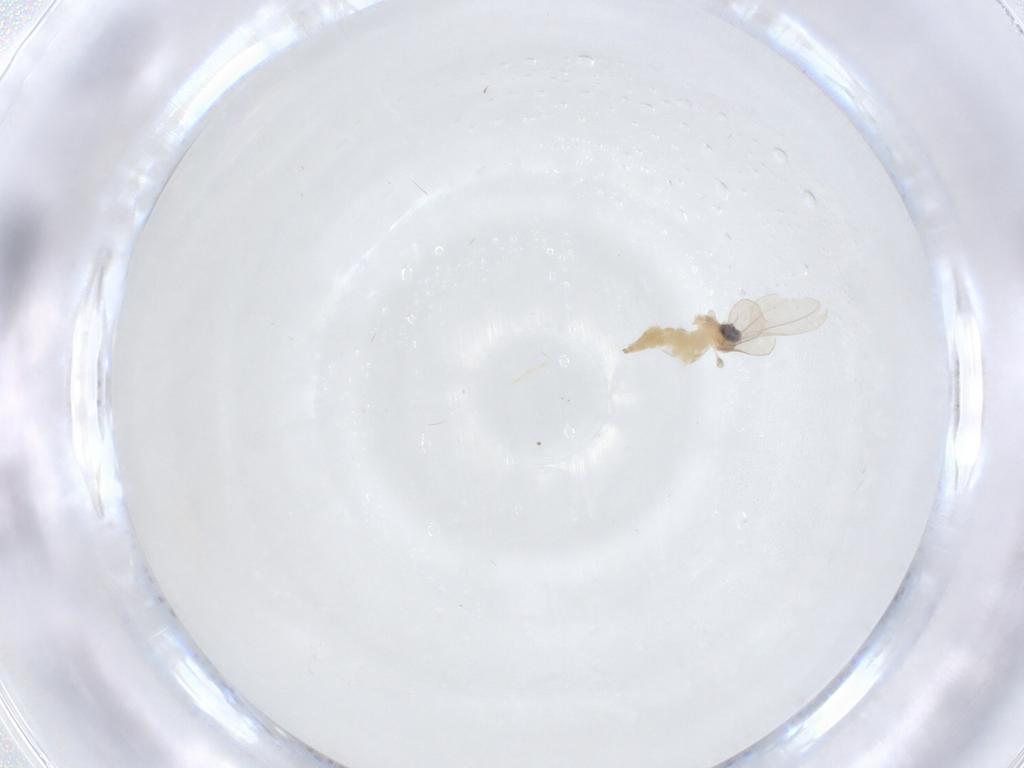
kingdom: Animalia
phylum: Arthropoda
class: Insecta
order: Diptera
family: Cecidomyiidae
